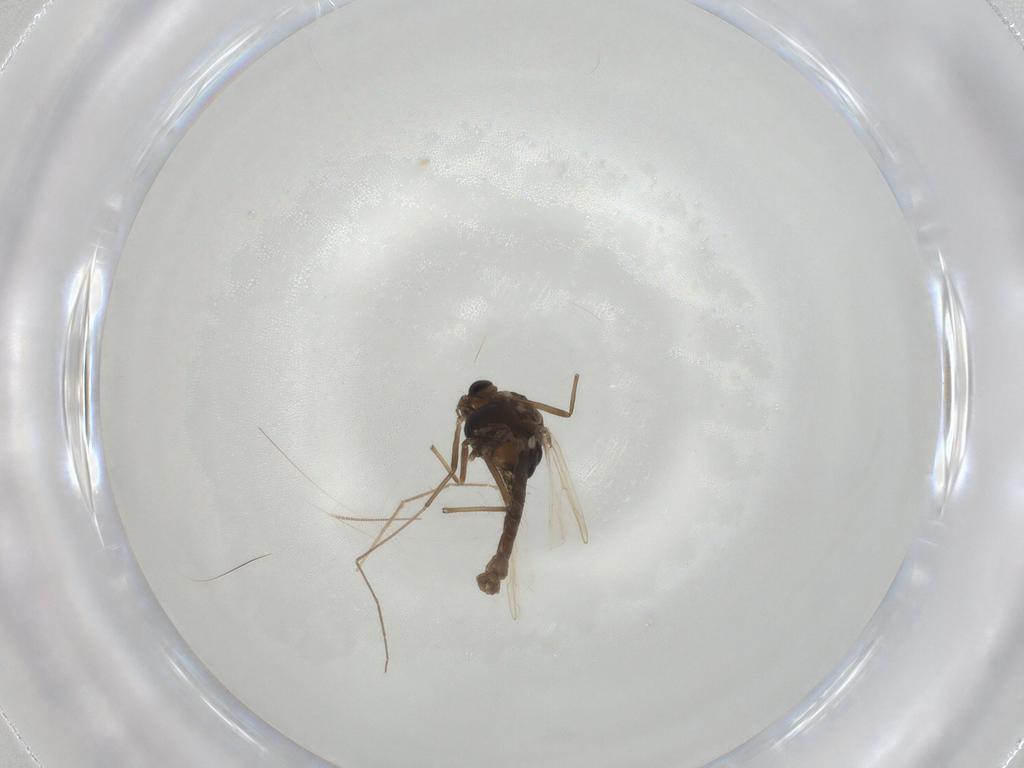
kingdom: Animalia
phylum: Arthropoda
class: Insecta
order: Diptera
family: Chironomidae
